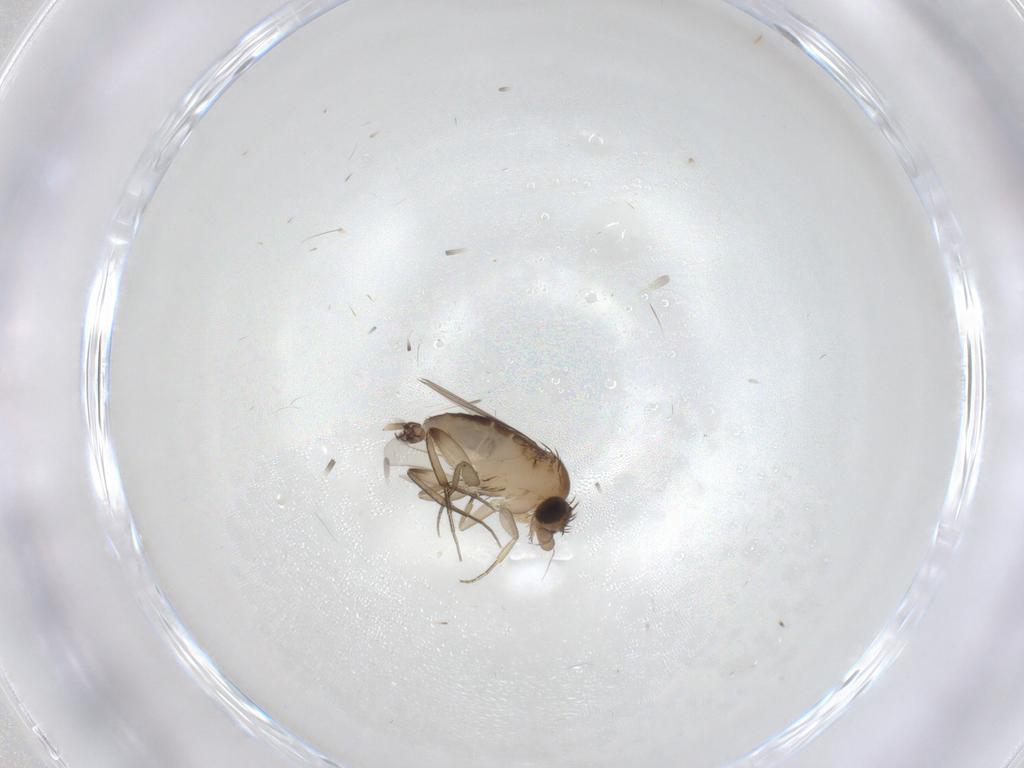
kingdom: Animalia
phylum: Arthropoda
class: Insecta
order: Diptera
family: Phoridae
